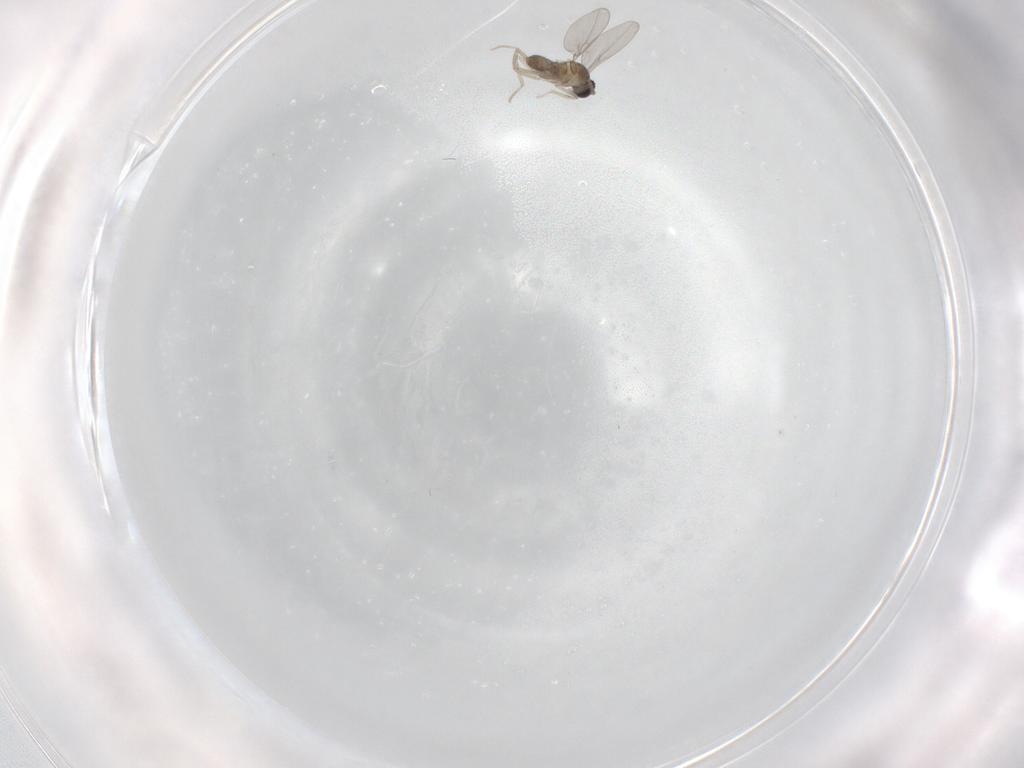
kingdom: Animalia
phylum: Arthropoda
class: Insecta
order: Diptera
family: Cecidomyiidae
